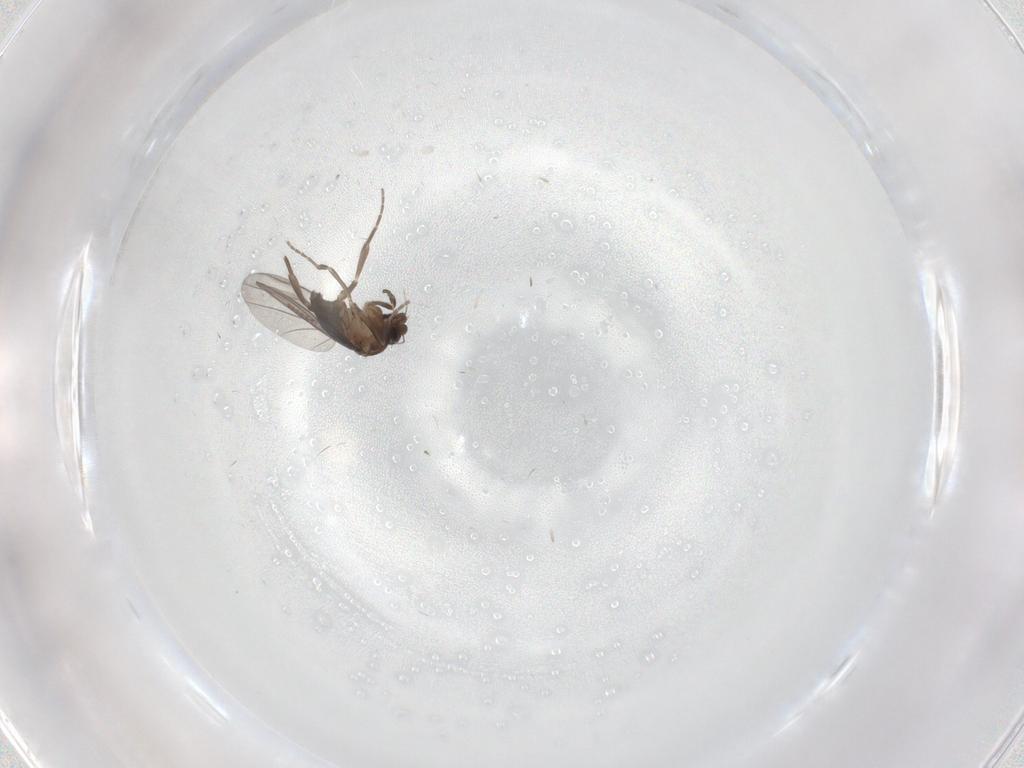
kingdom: Animalia
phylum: Arthropoda
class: Insecta
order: Diptera
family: Phoridae
